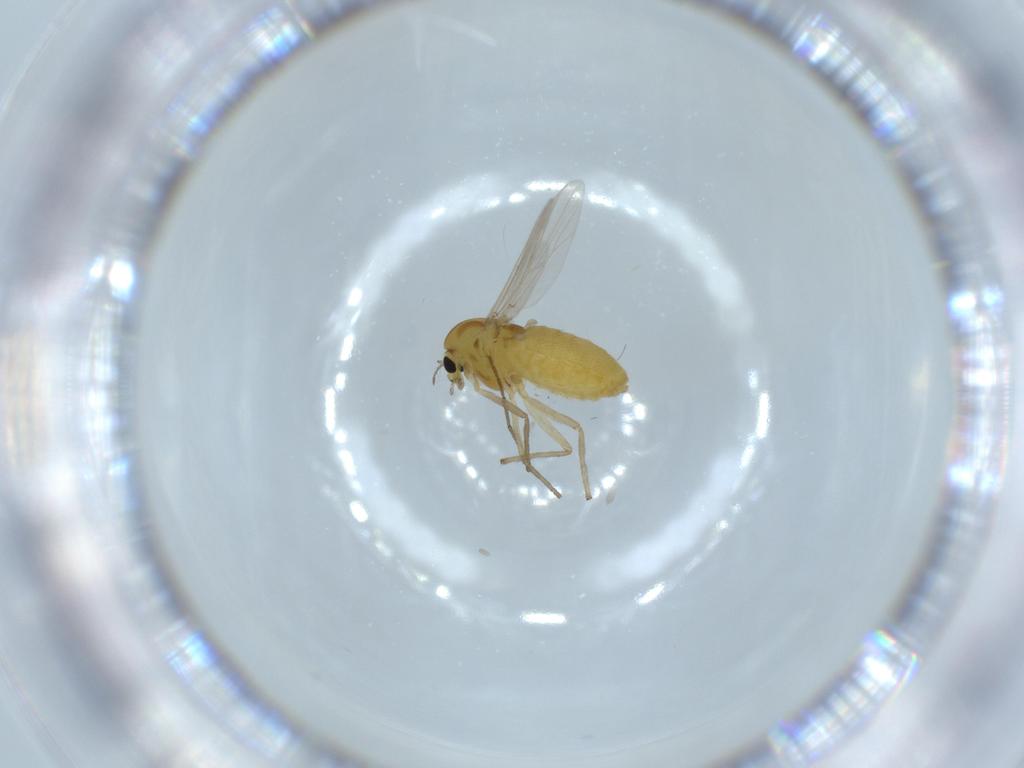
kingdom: Animalia
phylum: Arthropoda
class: Insecta
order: Diptera
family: Chironomidae
